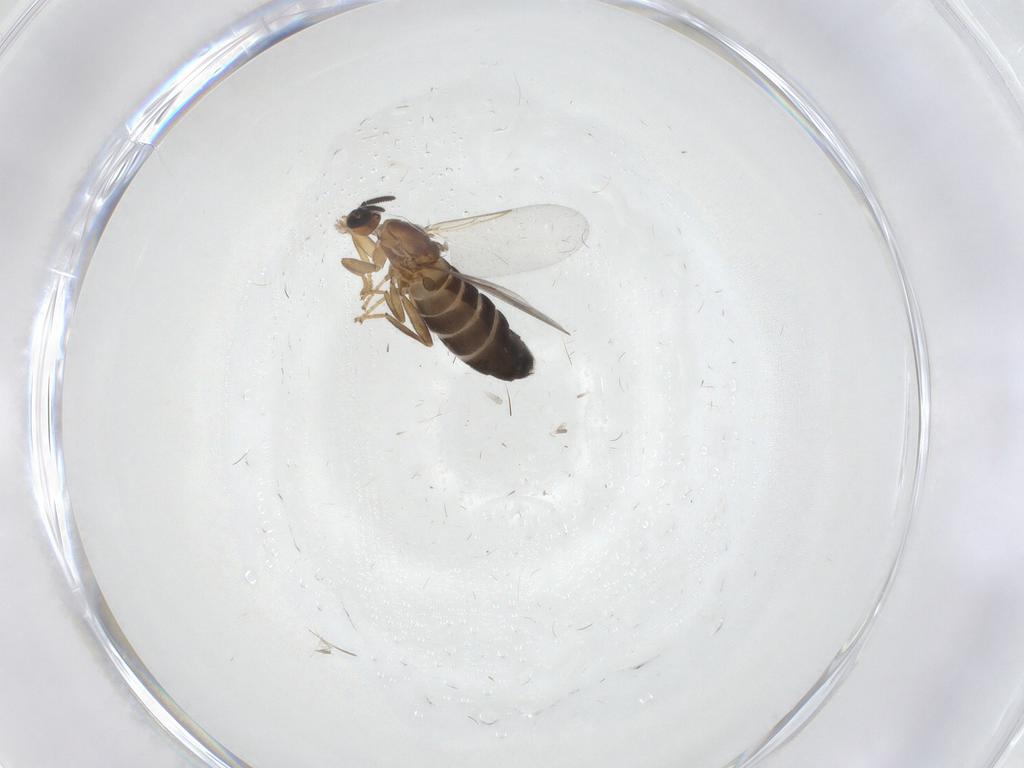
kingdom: Animalia
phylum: Arthropoda
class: Insecta
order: Diptera
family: Scatopsidae
